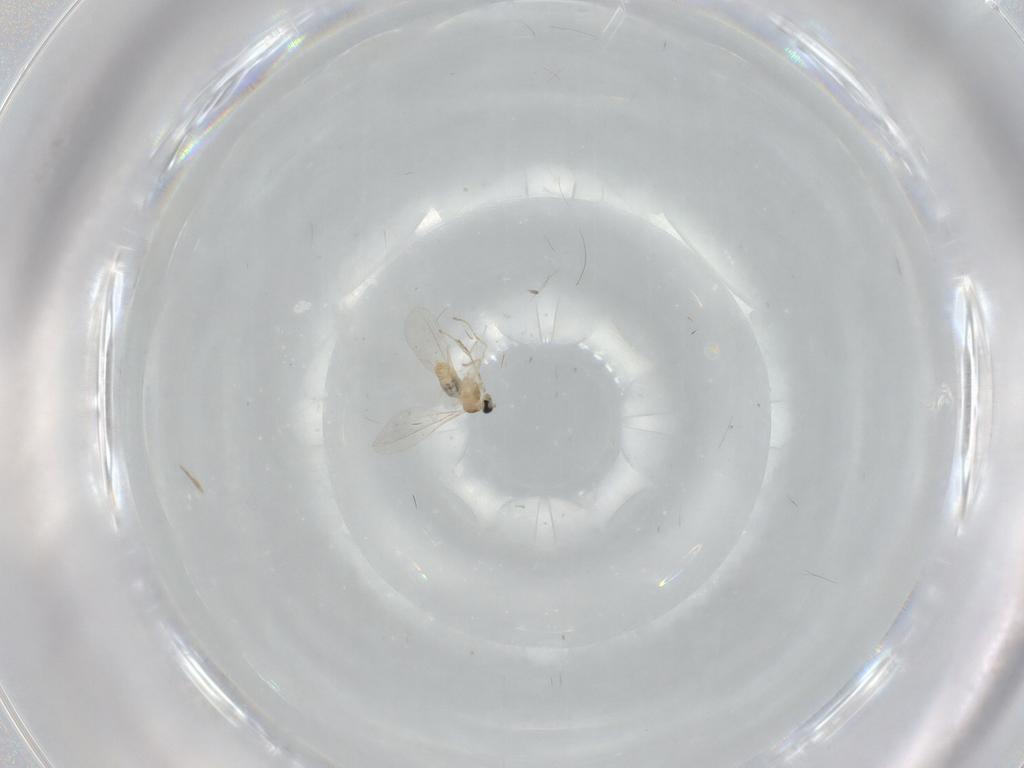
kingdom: Animalia
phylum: Arthropoda
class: Insecta
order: Diptera
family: Cecidomyiidae
